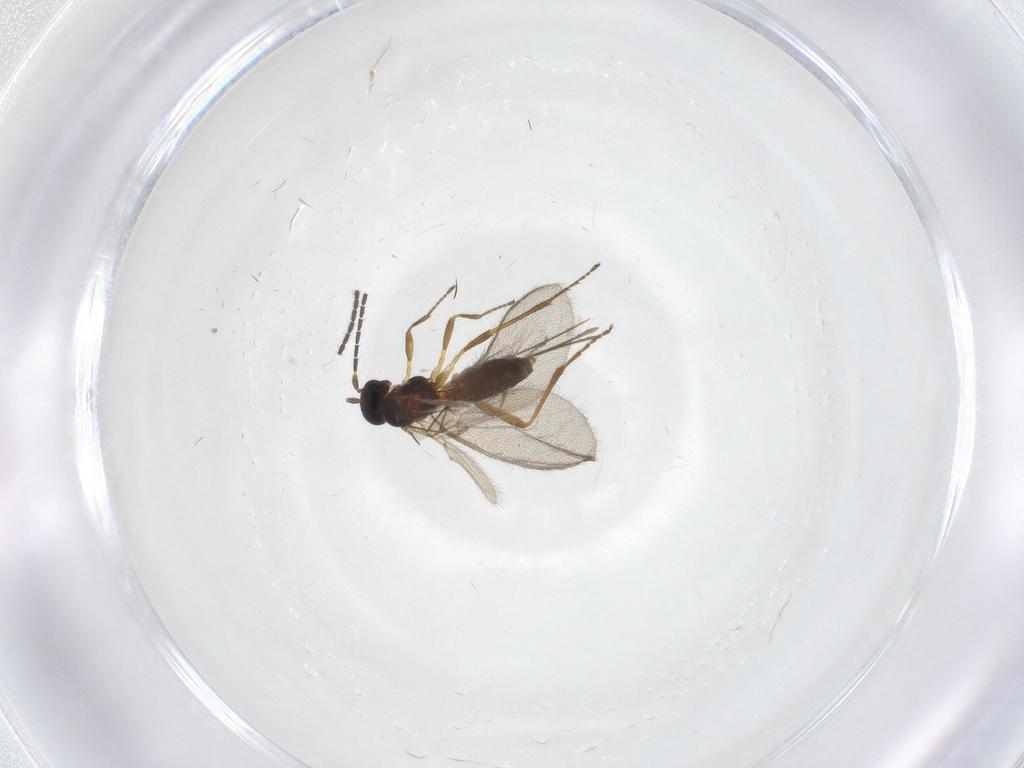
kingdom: Animalia
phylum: Arthropoda
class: Insecta
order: Hymenoptera
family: Braconidae
